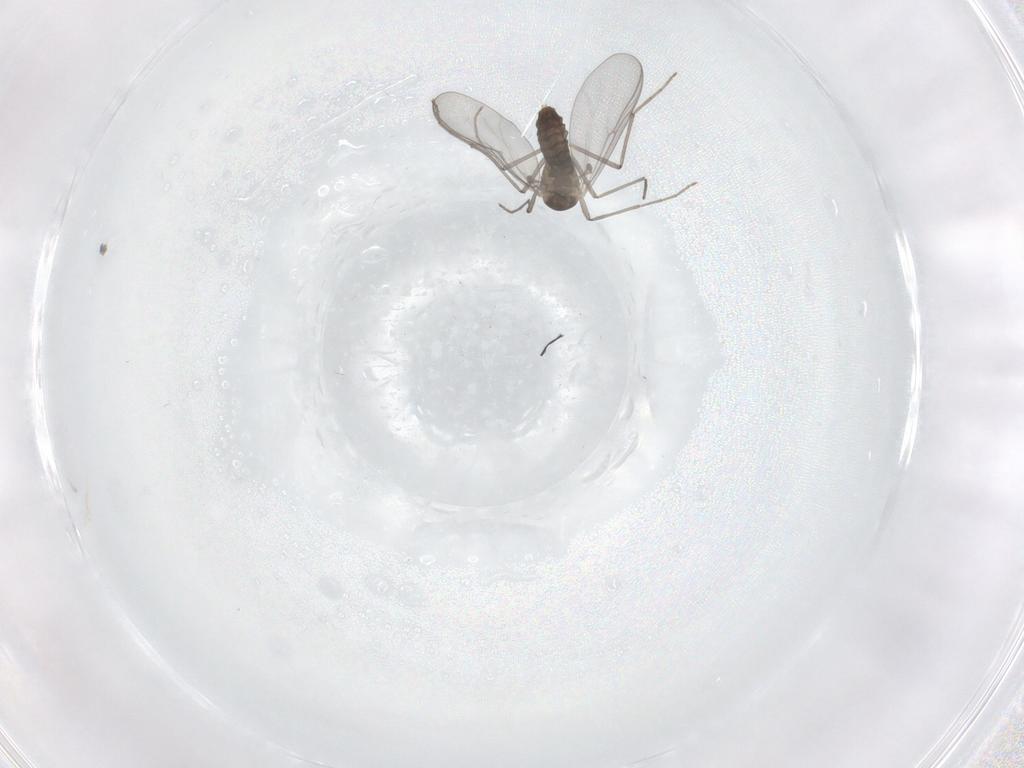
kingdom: Animalia
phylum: Arthropoda
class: Insecta
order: Diptera
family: Chironomidae
